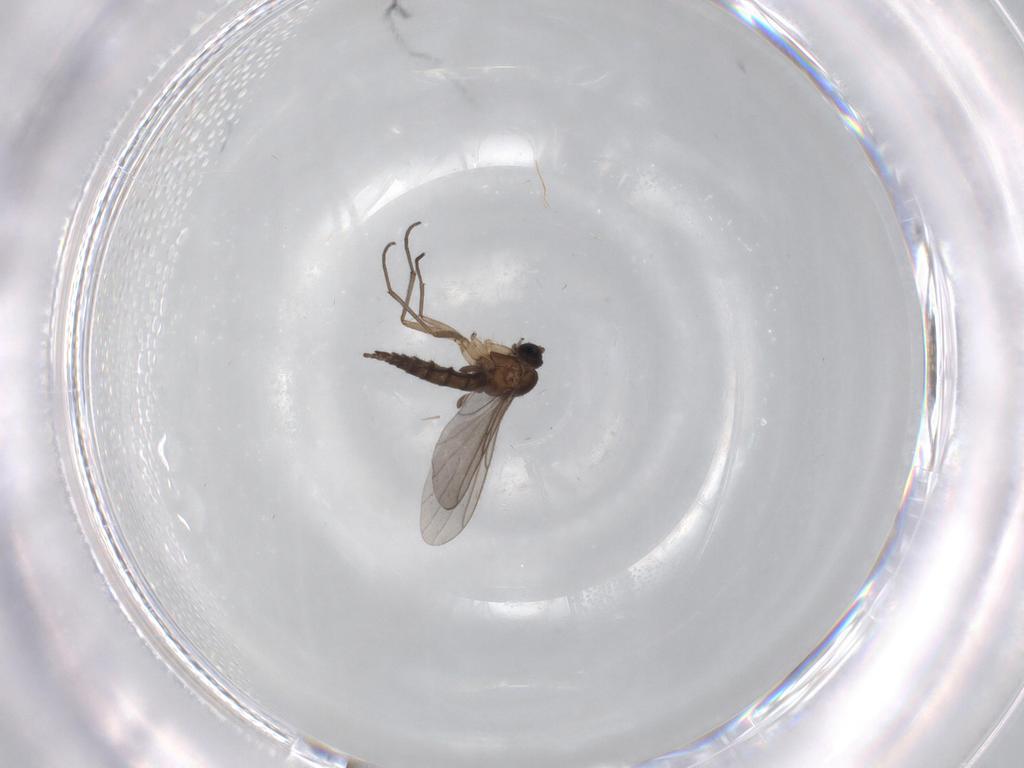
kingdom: Animalia
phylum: Arthropoda
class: Insecta
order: Diptera
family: Sciaridae
